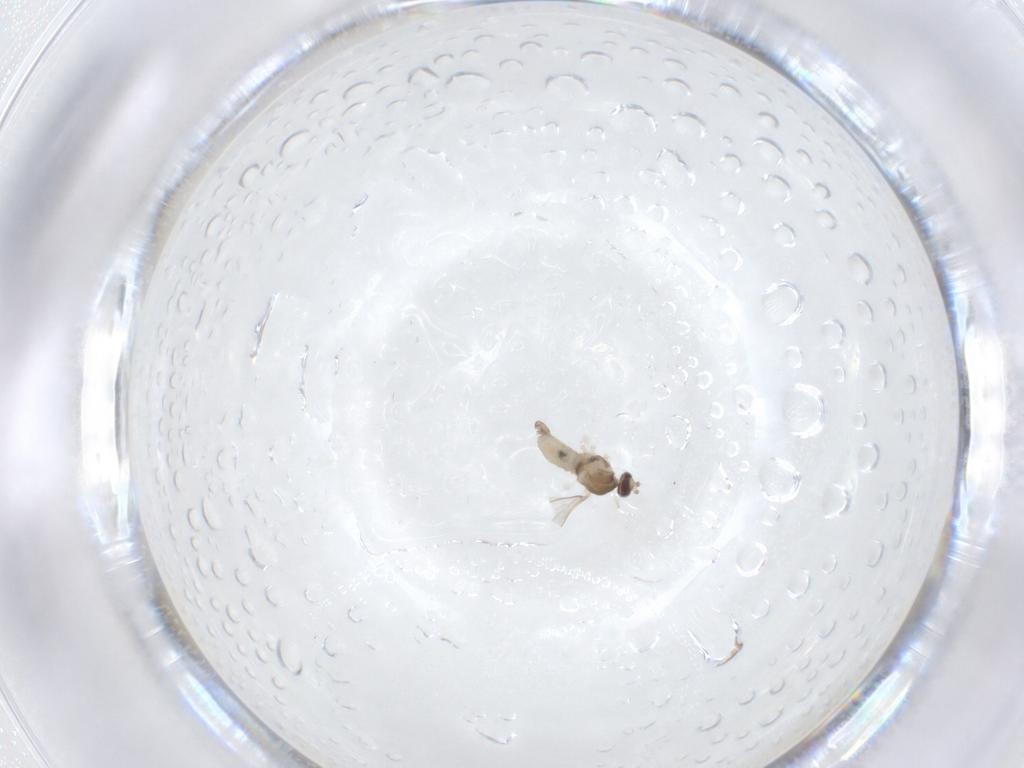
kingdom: Animalia
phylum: Arthropoda
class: Insecta
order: Diptera
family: Cecidomyiidae
